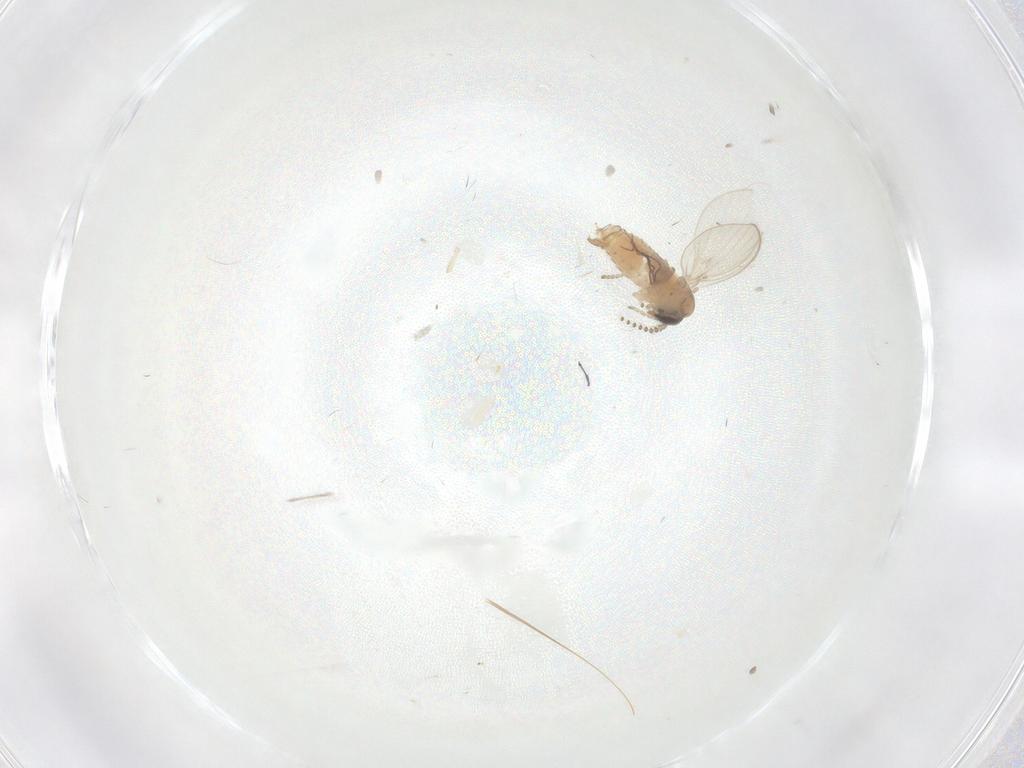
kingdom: Animalia
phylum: Arthropoda
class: Insecta
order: Diptera
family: Psychodidae
